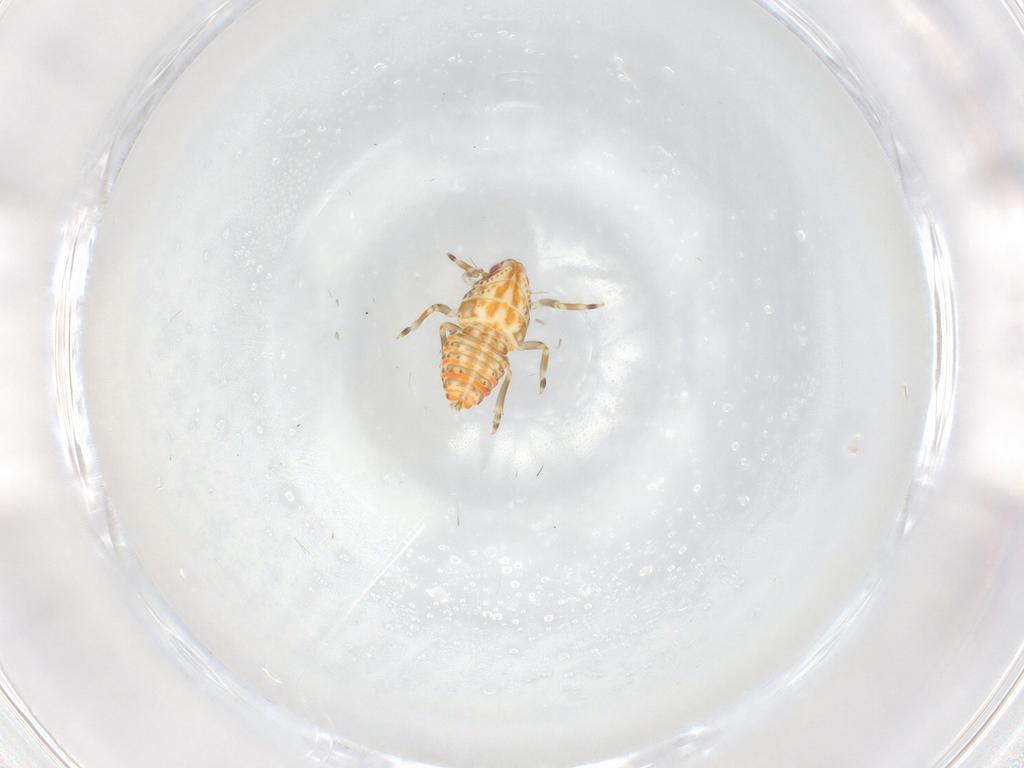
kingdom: Animalia
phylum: Arthropoda
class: Insecta
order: Hemiptera
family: Flatidae
